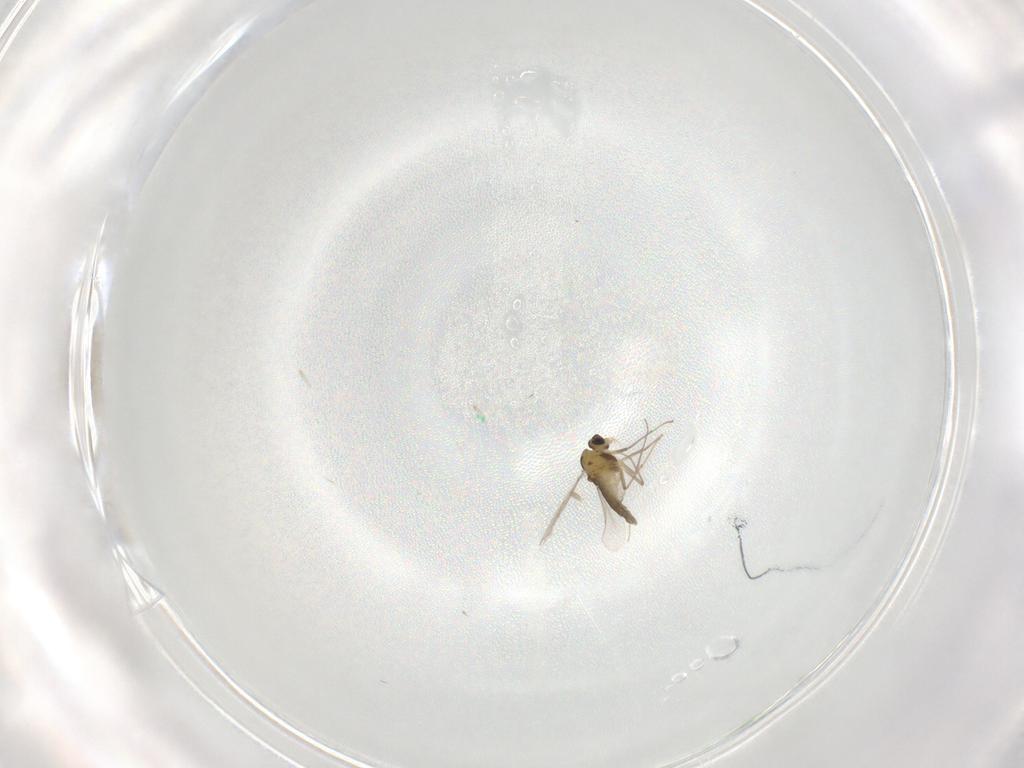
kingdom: Animalia
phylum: Arthropoda
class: Insecta
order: Diptera
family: Chironomidae
